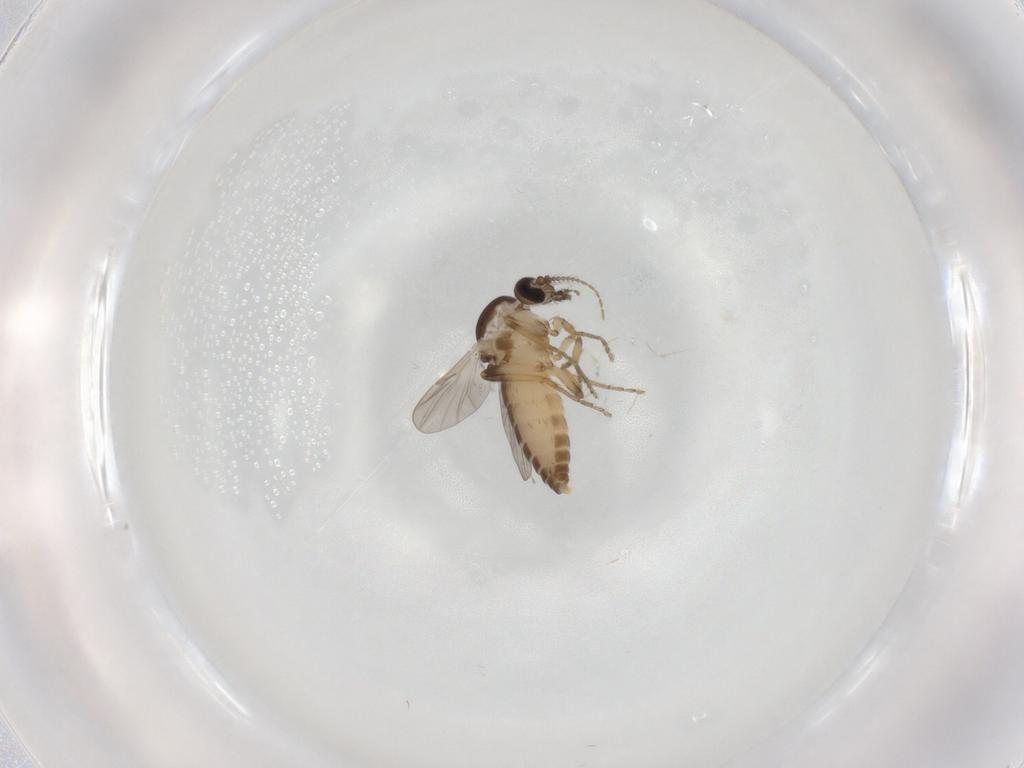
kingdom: Animalia
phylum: Arthropoda
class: Insecta
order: Diptera
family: Ceratopogonidae
